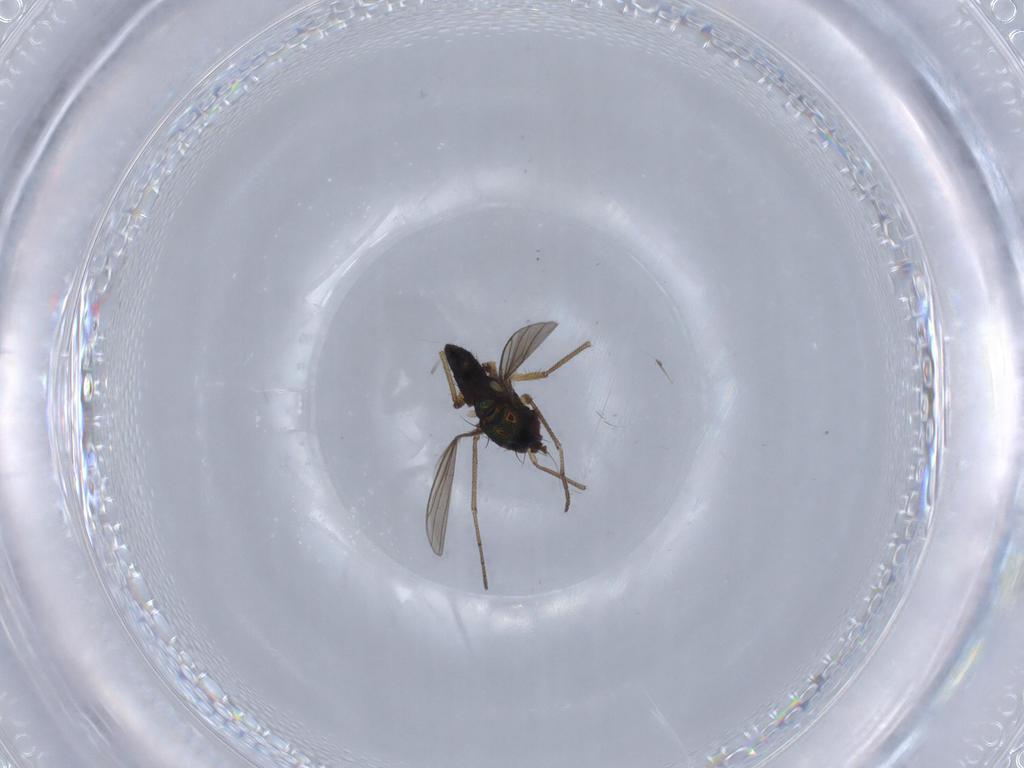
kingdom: Animalia
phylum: Arthropoda
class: Insecta
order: Diptera
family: Dolichopodidae
